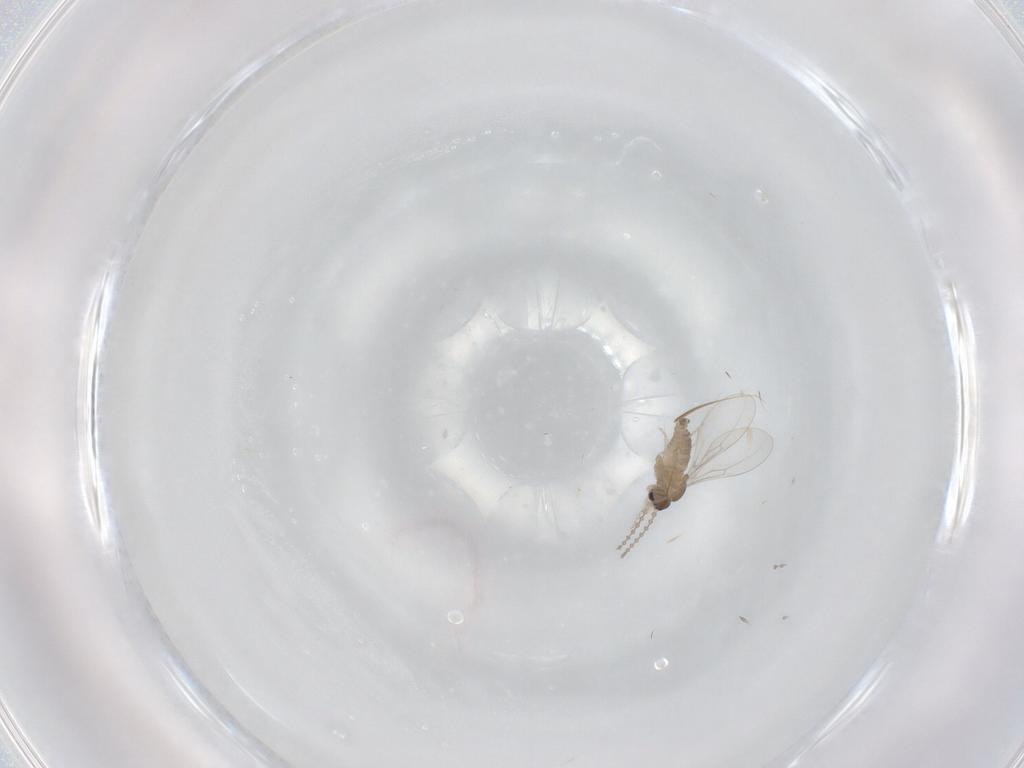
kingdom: Animalia
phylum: Arthropoda
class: Insecta
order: Diptera
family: Cecidomyiidae
